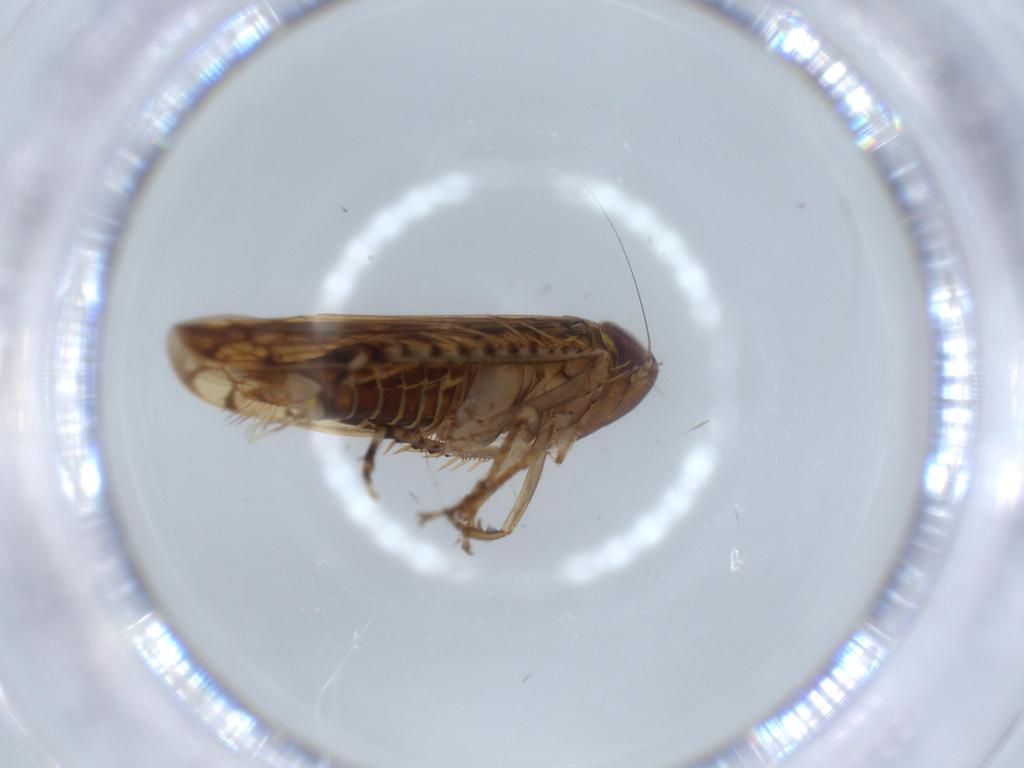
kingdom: Animalia
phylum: Arthropoda
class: Insecta
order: Hemiptera
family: Cicadellidae
